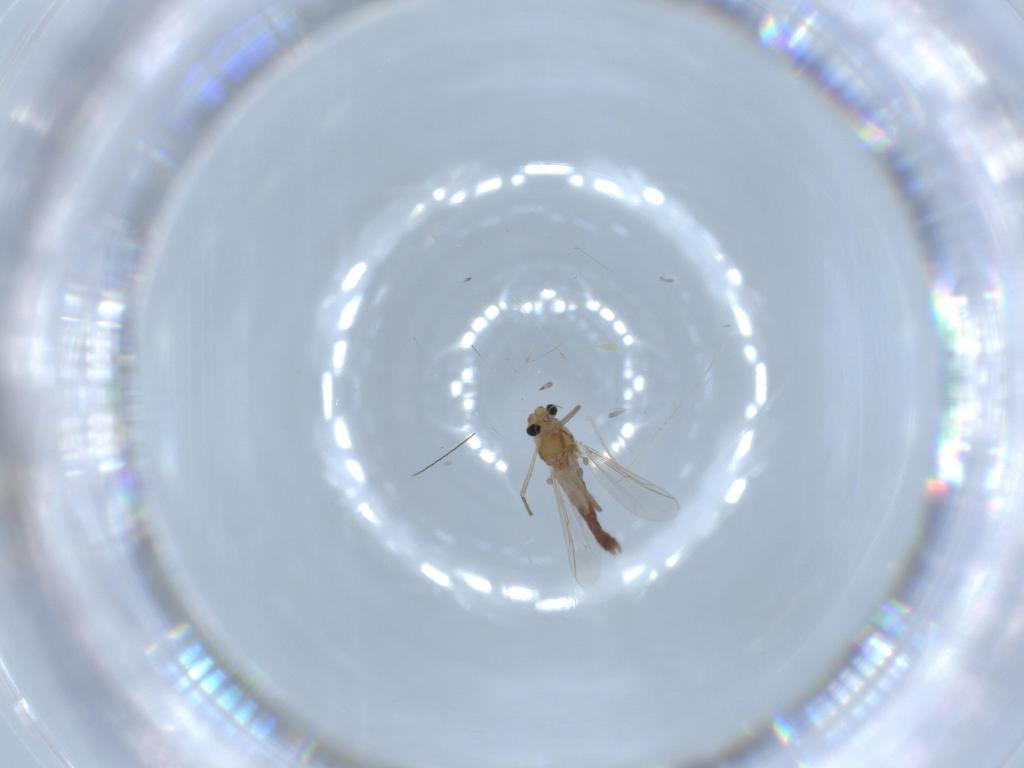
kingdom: Animalia
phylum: Arthropoda
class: Insecta
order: Diptera
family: Chironomidae
